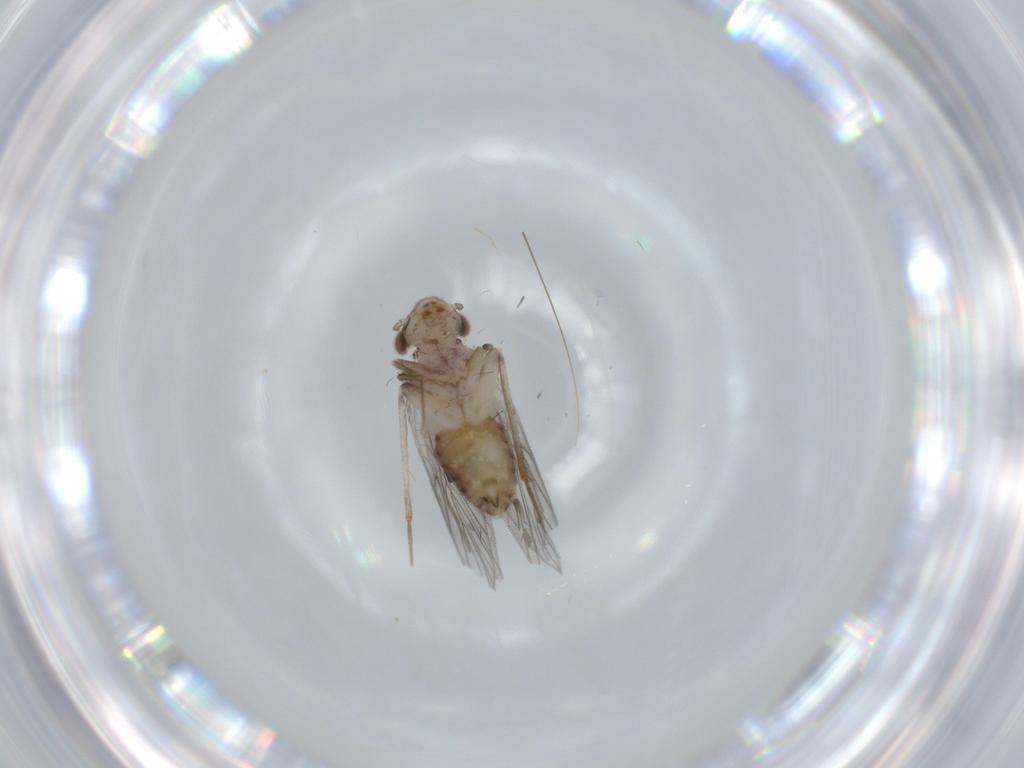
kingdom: Animalia
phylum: Arthropoda
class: Insecta
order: Psocodea
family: Lepidopsocidae
